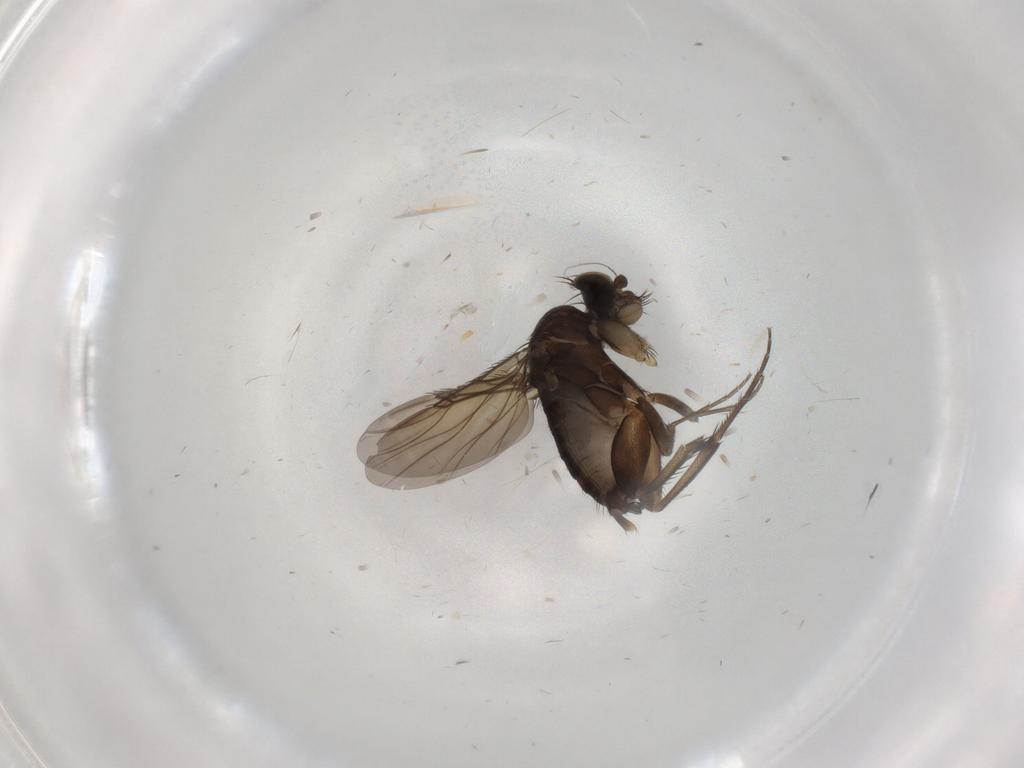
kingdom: Animalia
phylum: Arthropoda
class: Insecta
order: Diptera
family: Phoridae
